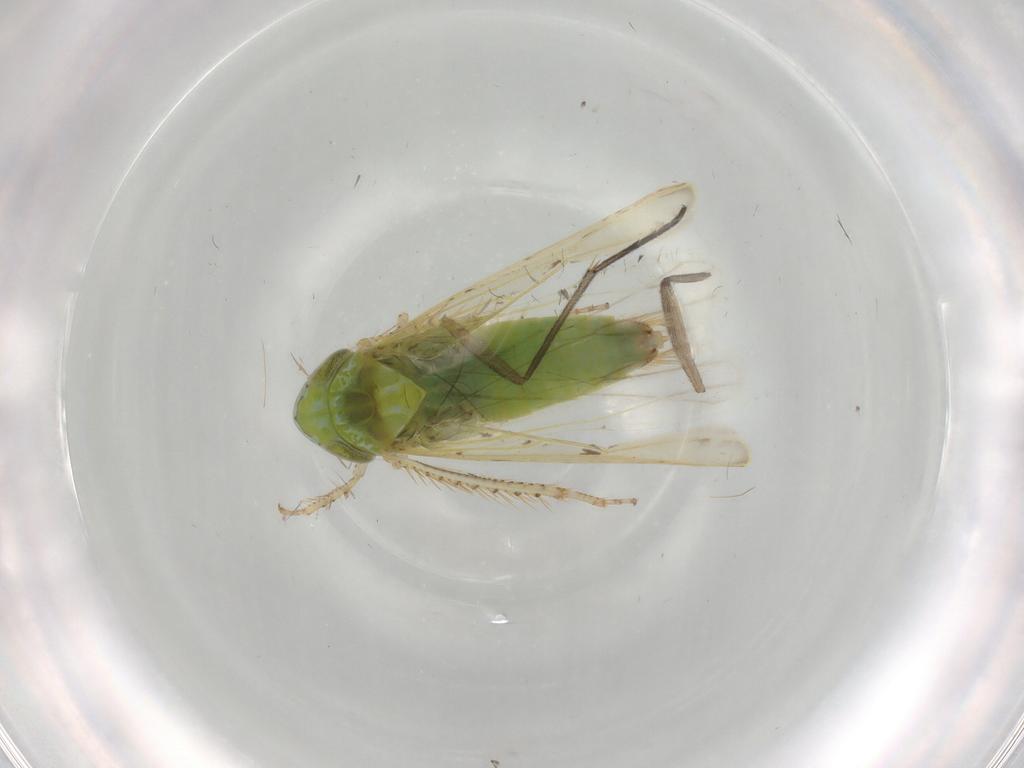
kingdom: Animalia
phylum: Arthropoda
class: Insecta
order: Hemiptera
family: Cicadellidae
